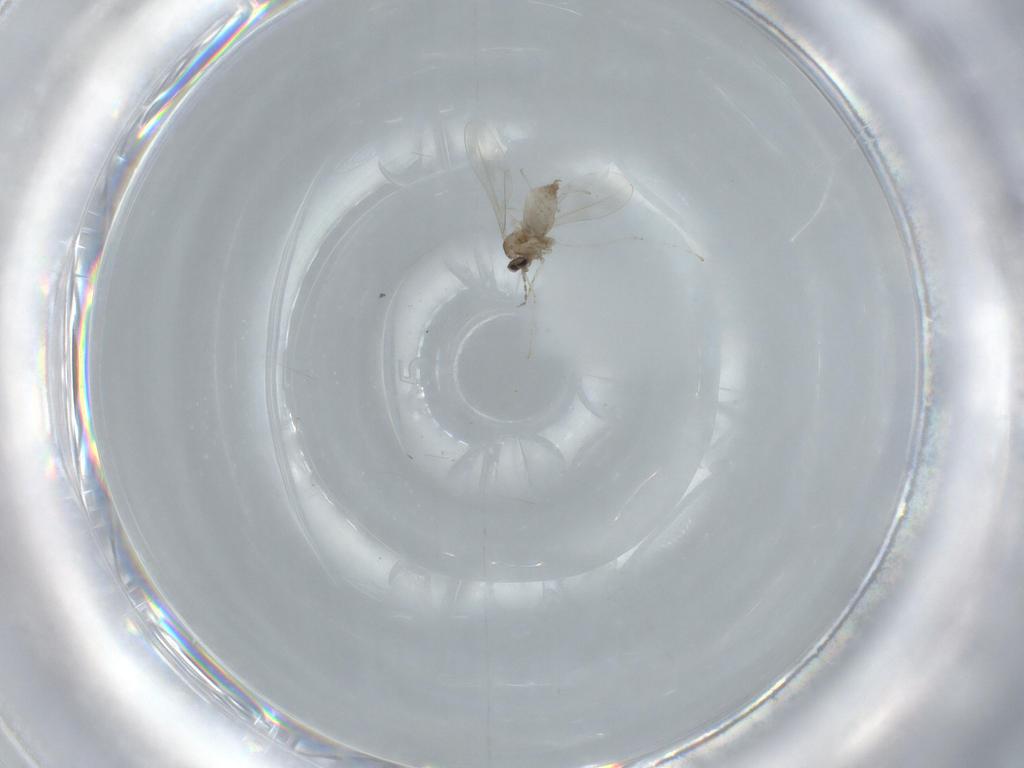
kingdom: Animalia
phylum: Arthropoda
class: Insecta
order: Diptera
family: Cecidomyiidae
